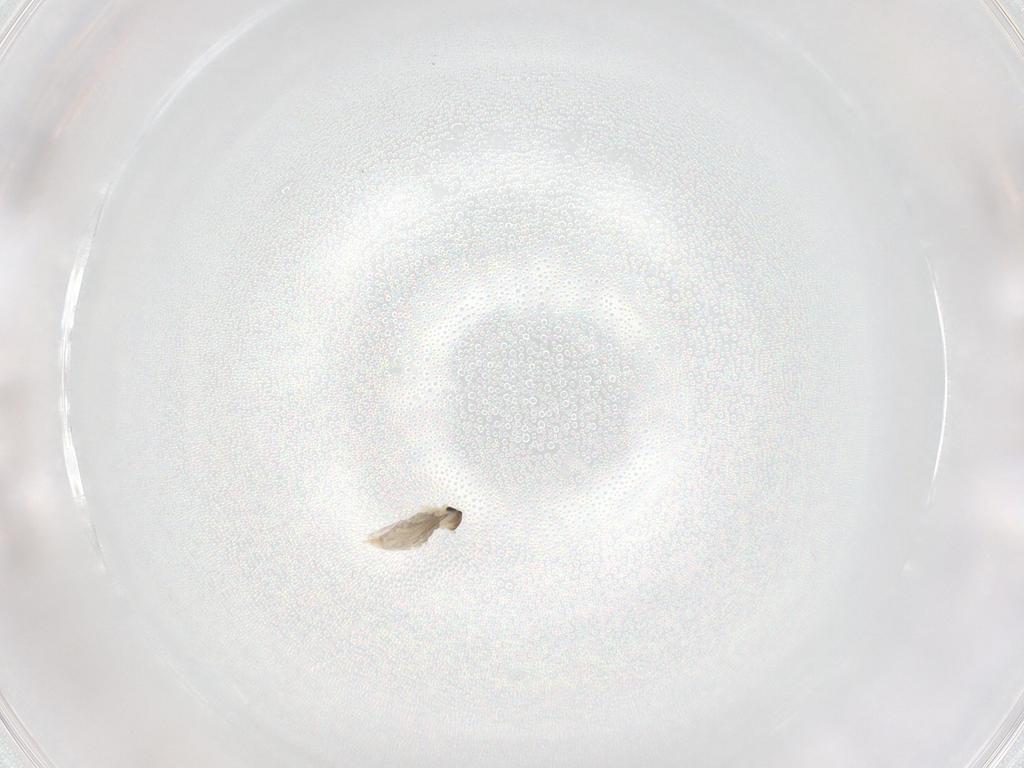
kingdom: Animalia
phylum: Arthropoda
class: Insecta
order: Diptera
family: Cecidomyiidae
